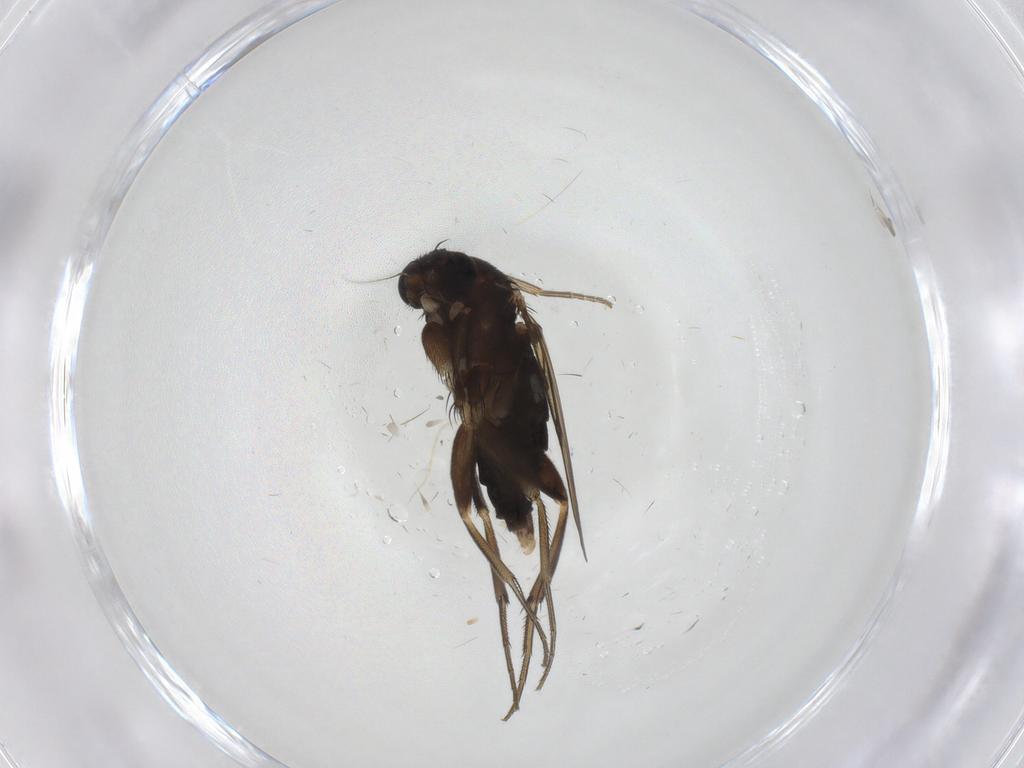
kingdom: Animalia
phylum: Arthropoda
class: Insecta
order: Diptera
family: Phoridae
